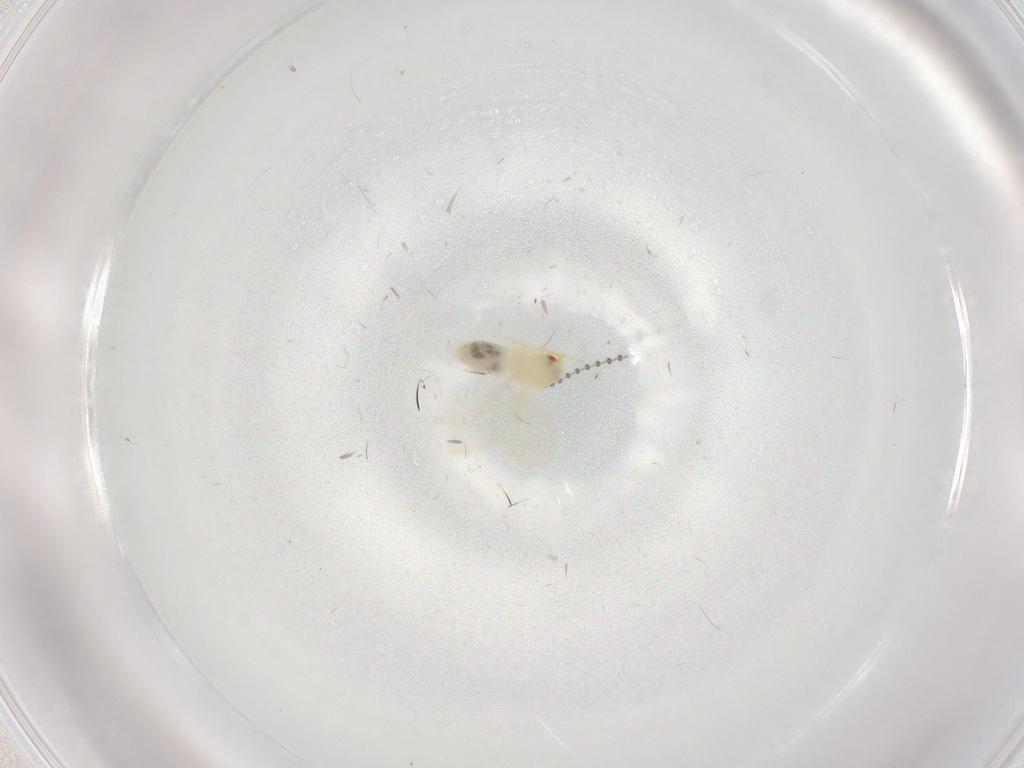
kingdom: Animalia
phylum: Arthropoda
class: Insecta
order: Hemiptera
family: Aleyrodidae
